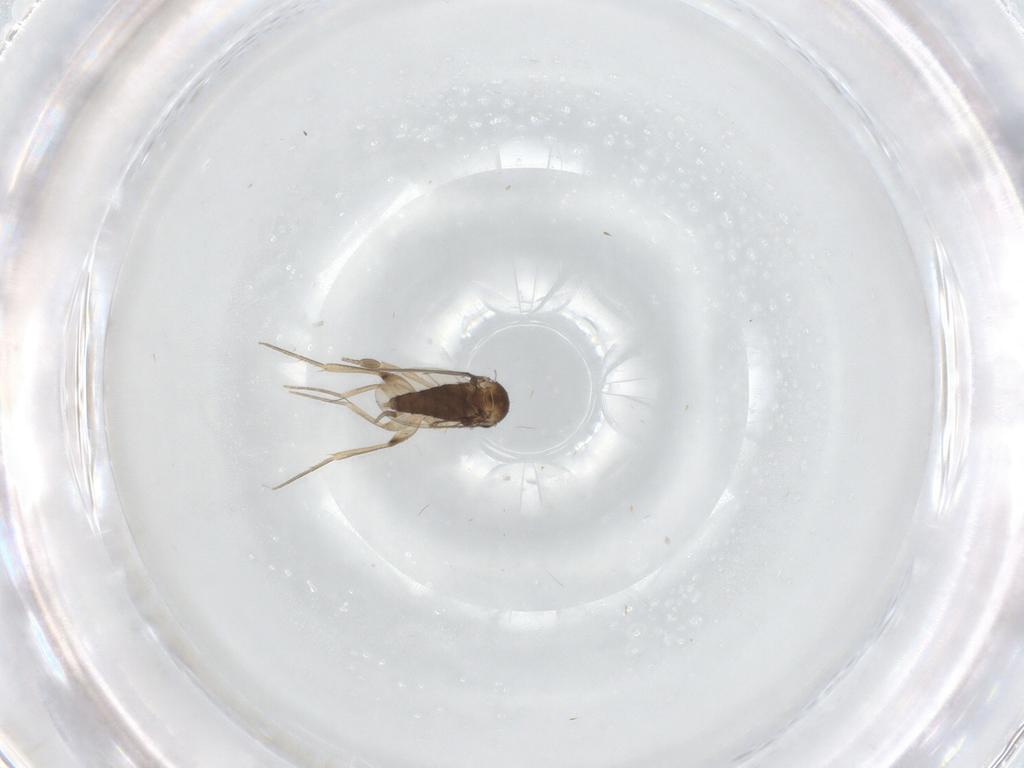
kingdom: Animalia
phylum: Arthropoda
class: Insecta
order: Diptera
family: Phoridae
